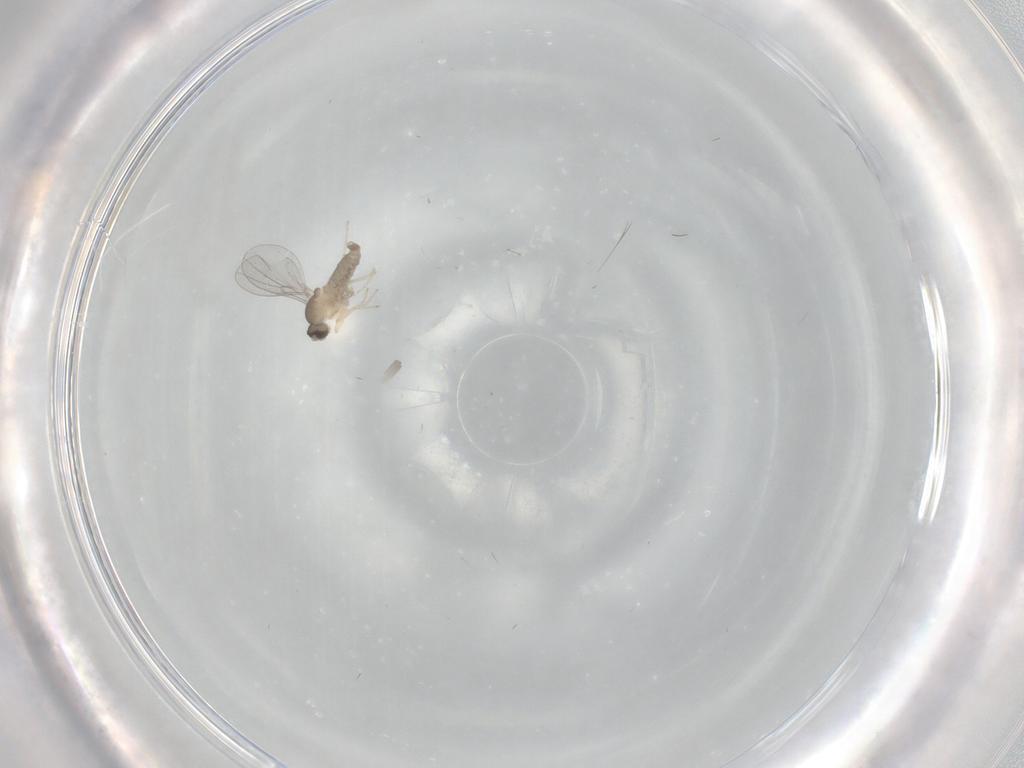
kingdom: Animalia
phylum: Arthropoda
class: Insecta
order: Diptera
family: Cecidomyiidae
